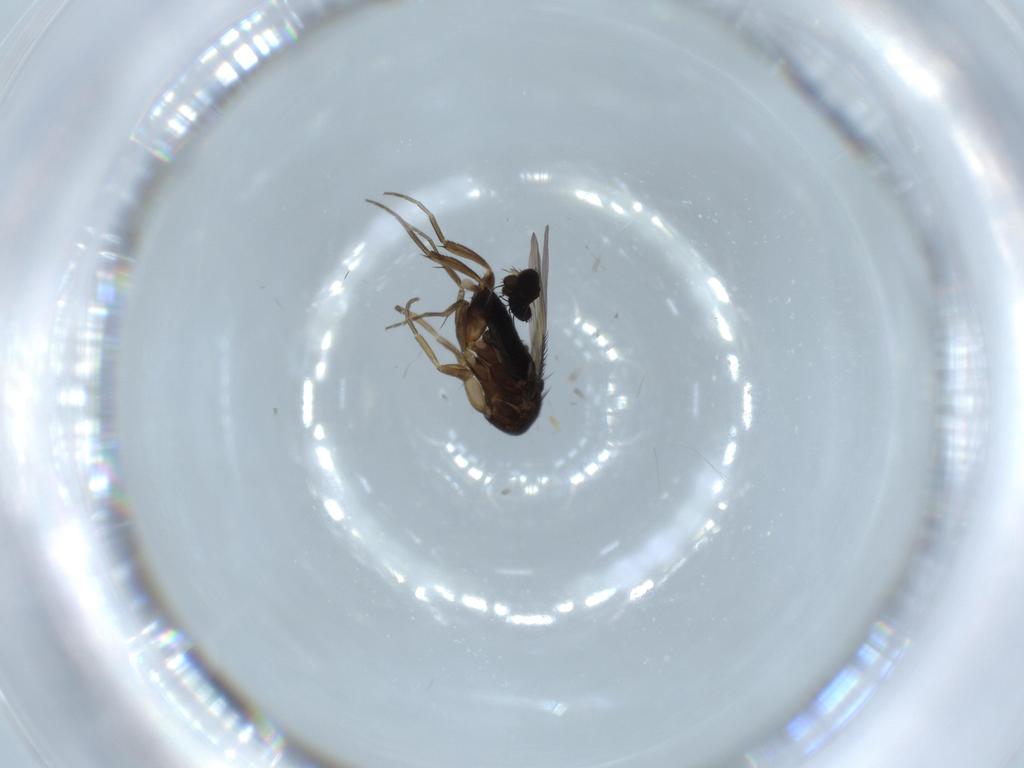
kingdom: Animalia
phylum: Arthropoda
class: Insecta
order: Diptera
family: Phoridae
